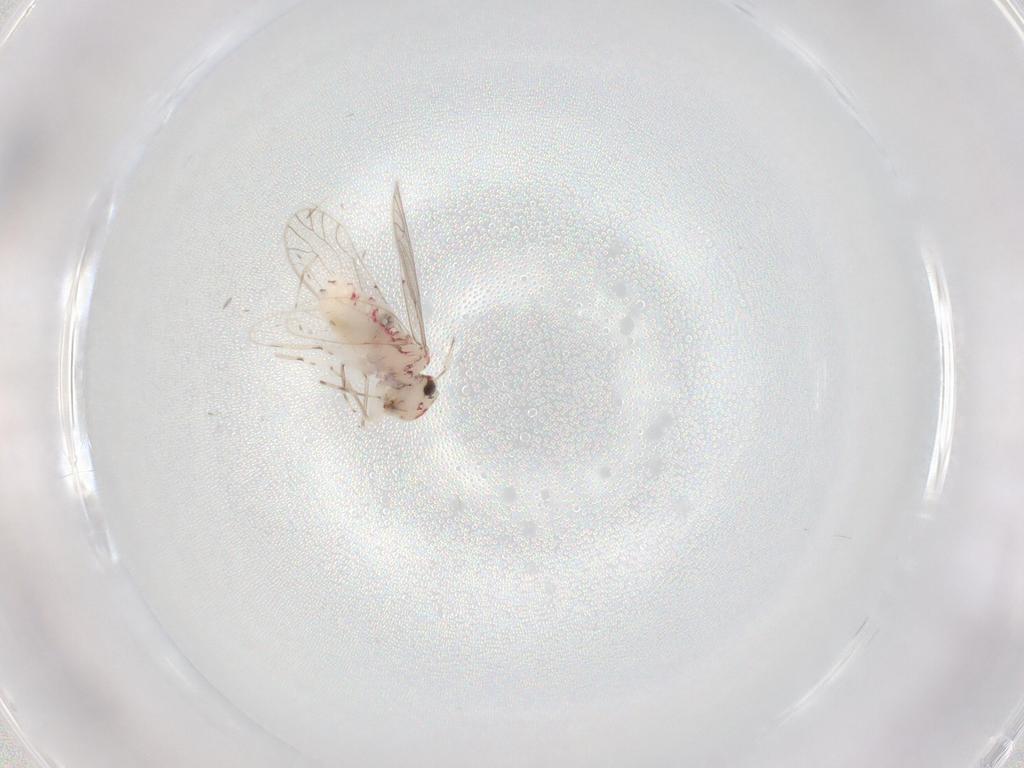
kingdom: Animalia
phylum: Arthropoda
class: Insecta
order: Psocodea
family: Caeciliusidae
